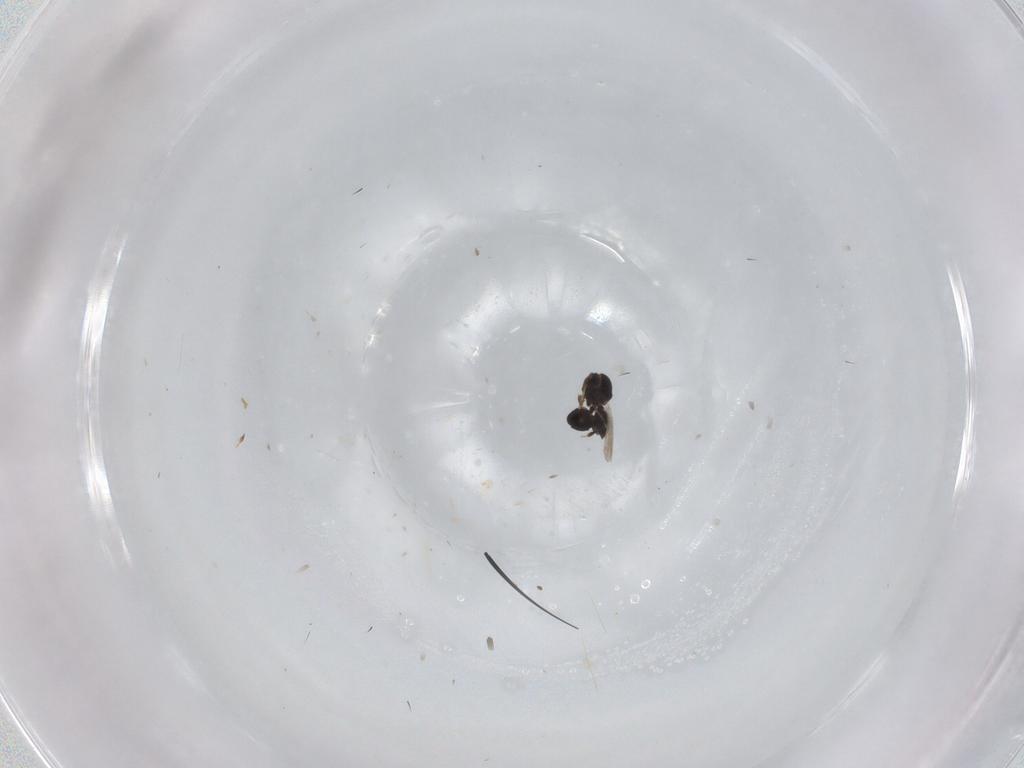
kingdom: Animalia
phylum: Arthropoda
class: Insecta
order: Hymenoptera
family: Platygastridae
